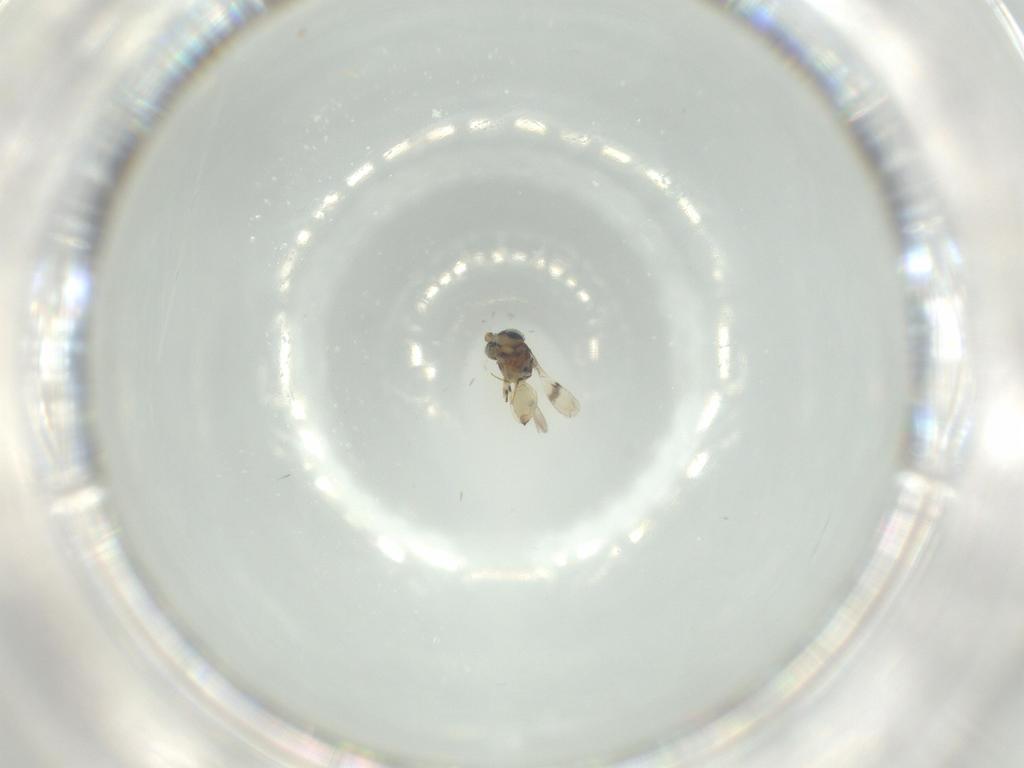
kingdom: Animalia
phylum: Arthropoda
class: Insecta
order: Hymenoptera
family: Scelionidae
